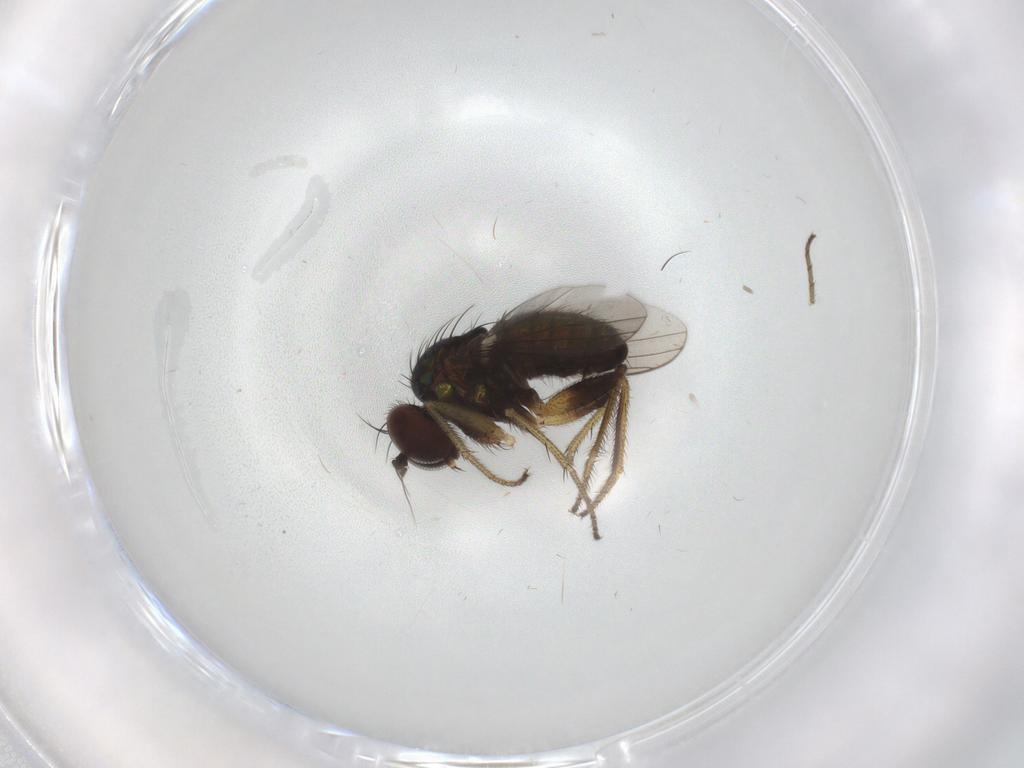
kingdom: Animalia
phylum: Arthropoda
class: Insecta
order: Diptera
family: Dolichopodidae
